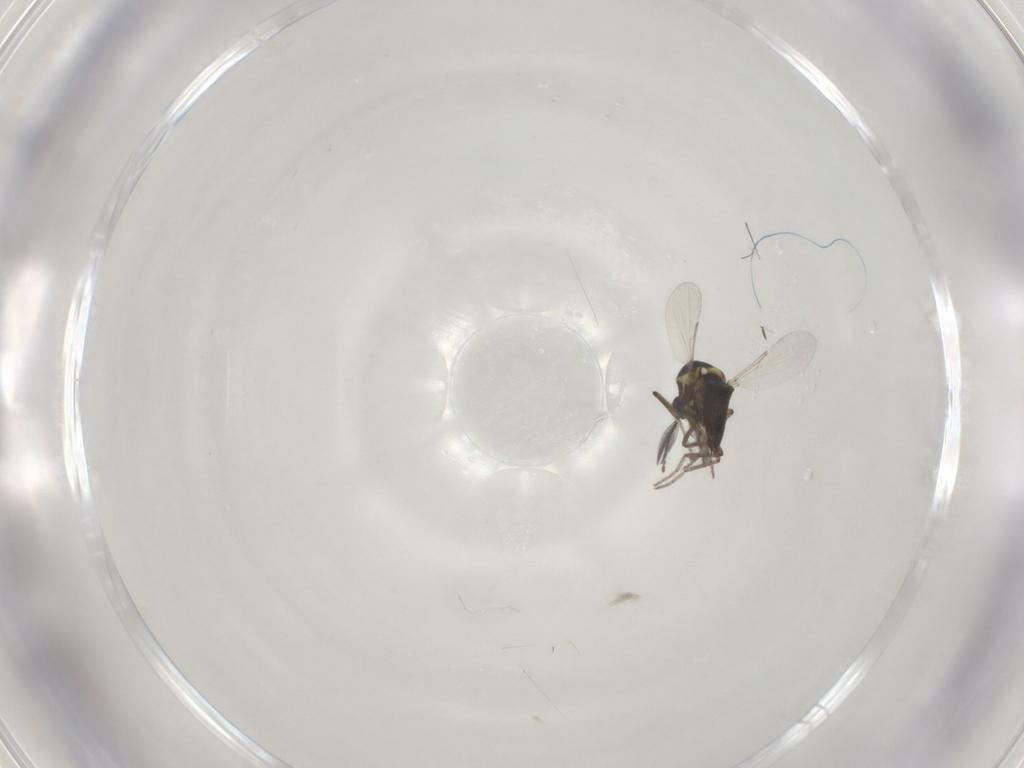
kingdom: Animalia
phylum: Arthropoda
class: Insecta
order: Diptera
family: Ceratopogonidae
